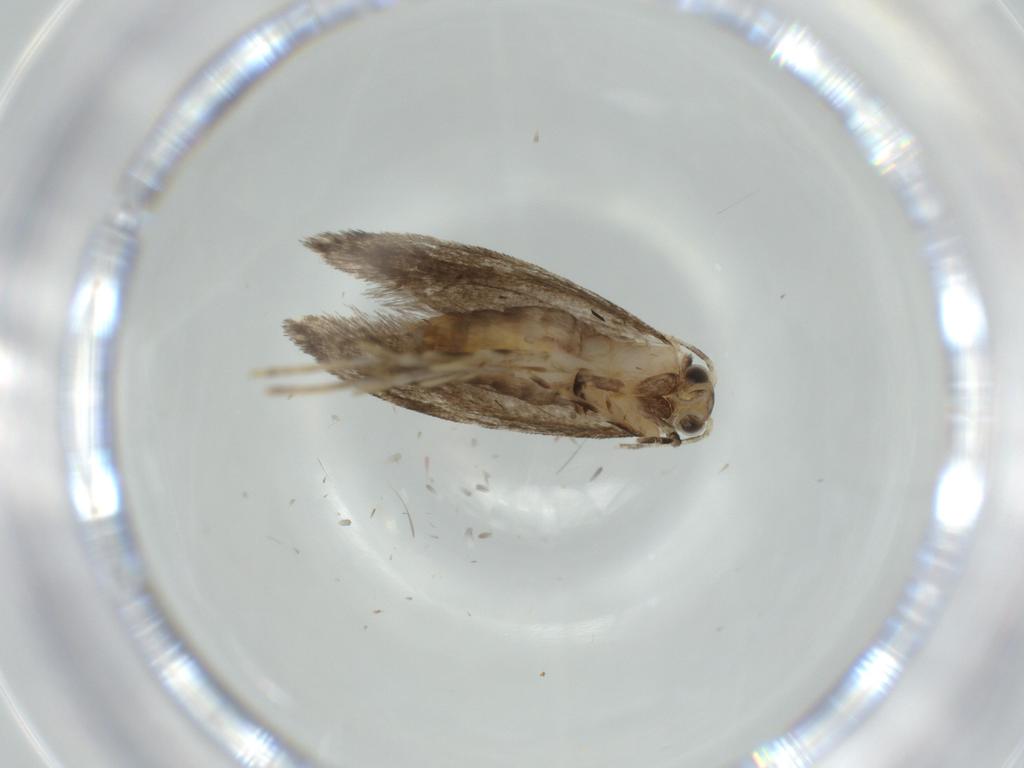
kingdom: Animalia
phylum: Arthropoda
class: Insecta
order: Lepidoptera
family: Tineidae
